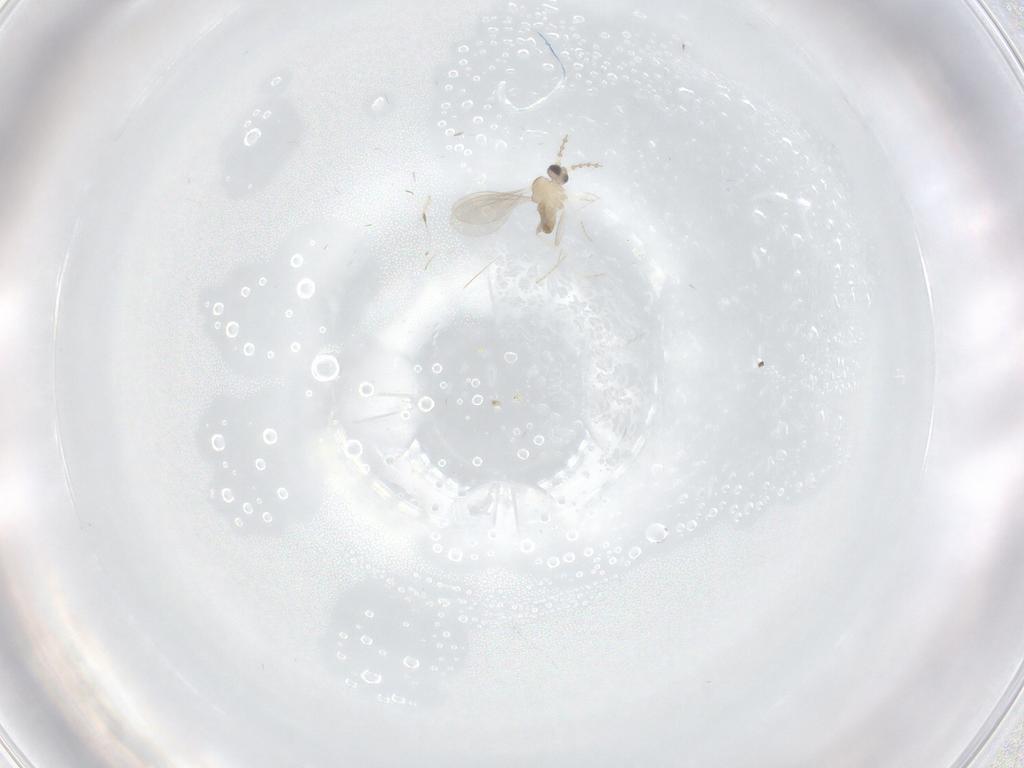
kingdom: Animalia
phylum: Arthropoda
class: Insecta
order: Diptera
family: Cecidomyiidae
